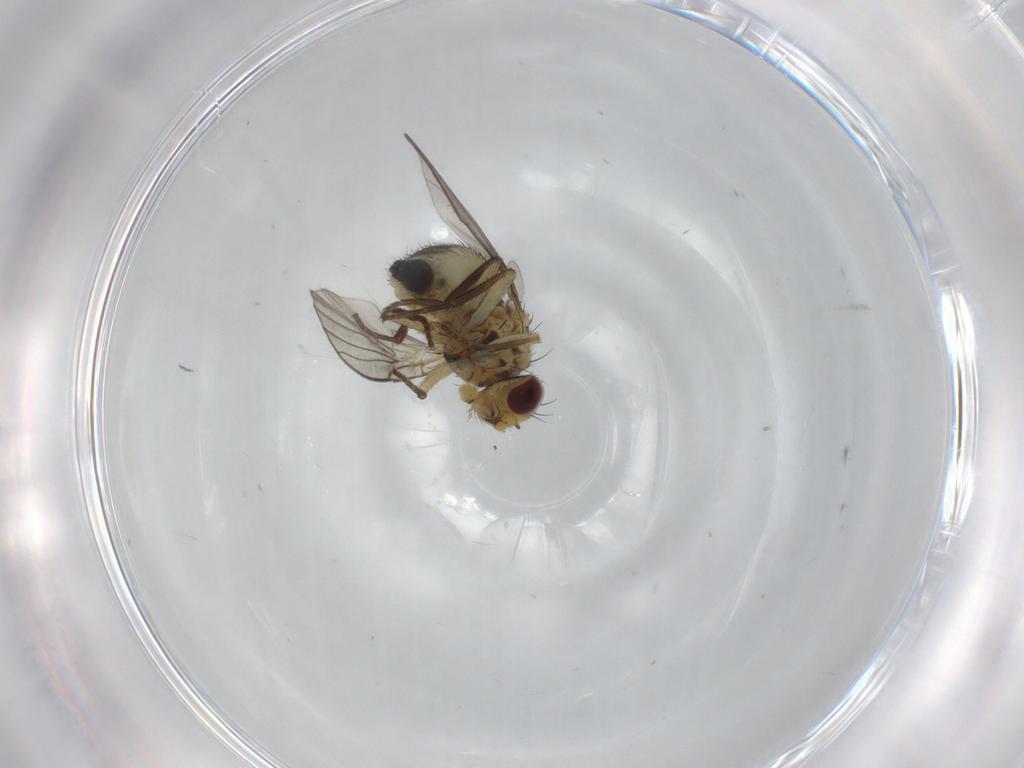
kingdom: Animalia
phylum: Arthropoda
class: Insecta
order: Diptera
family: Agromyzidae
